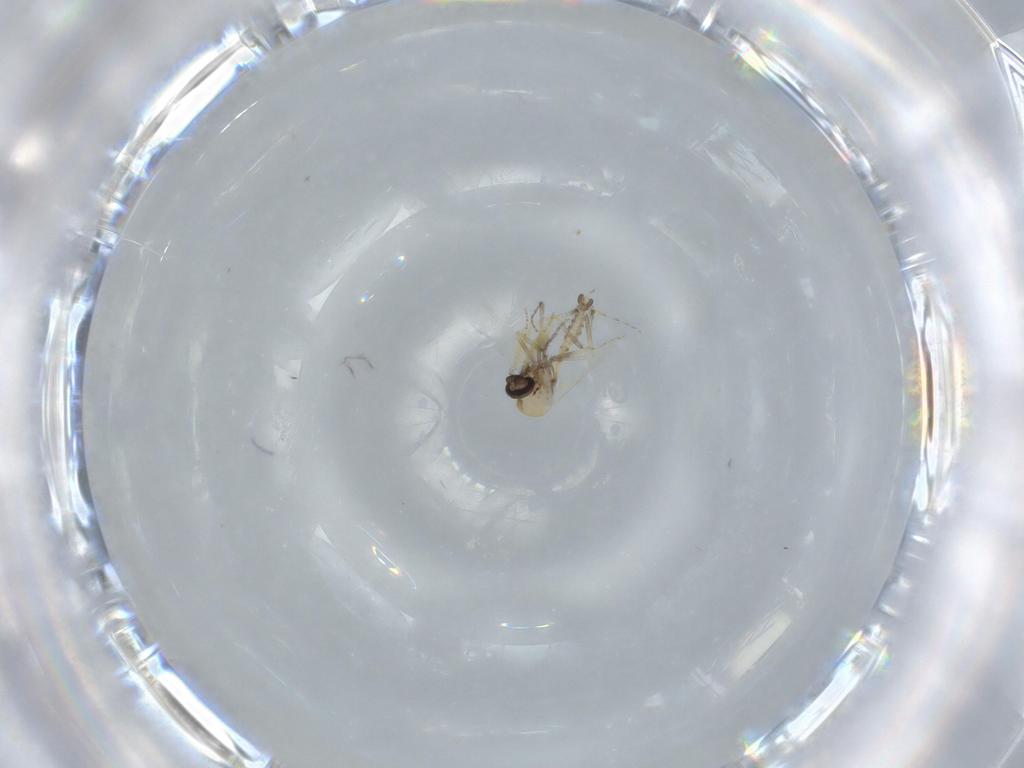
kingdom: Animalia
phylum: Arthropoda
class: Insecta
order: Diptera
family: Ceratopogonidae
